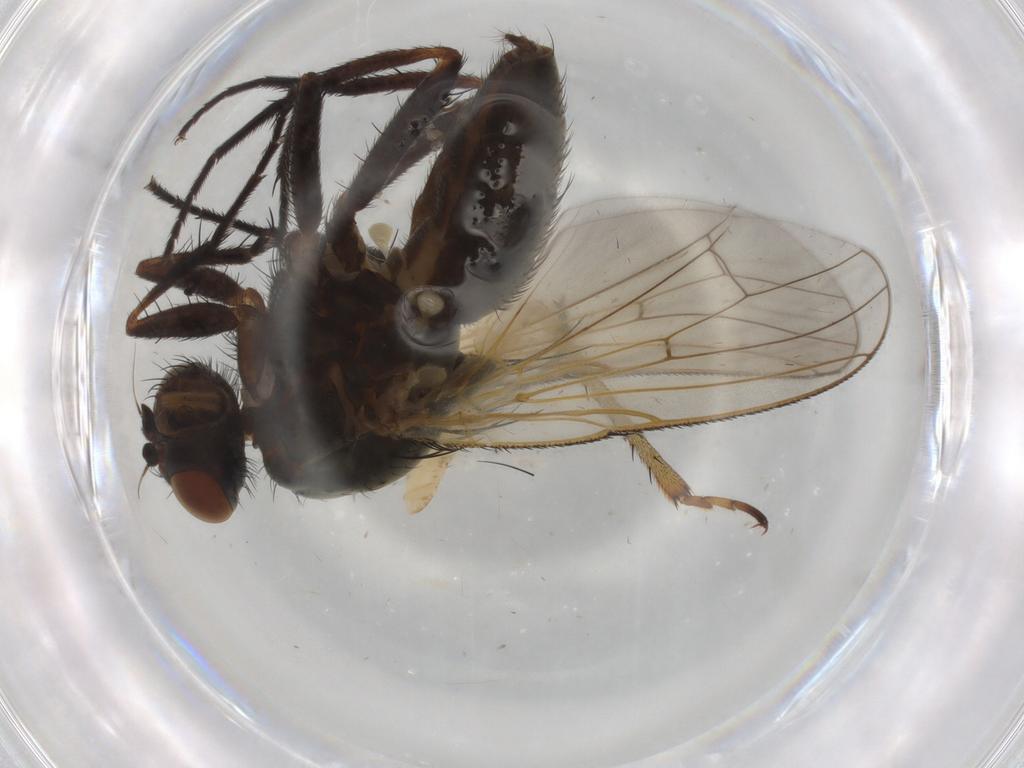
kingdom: Animalia
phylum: Arthropoda
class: Insecta
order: Diptera
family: Anthomyiidae
